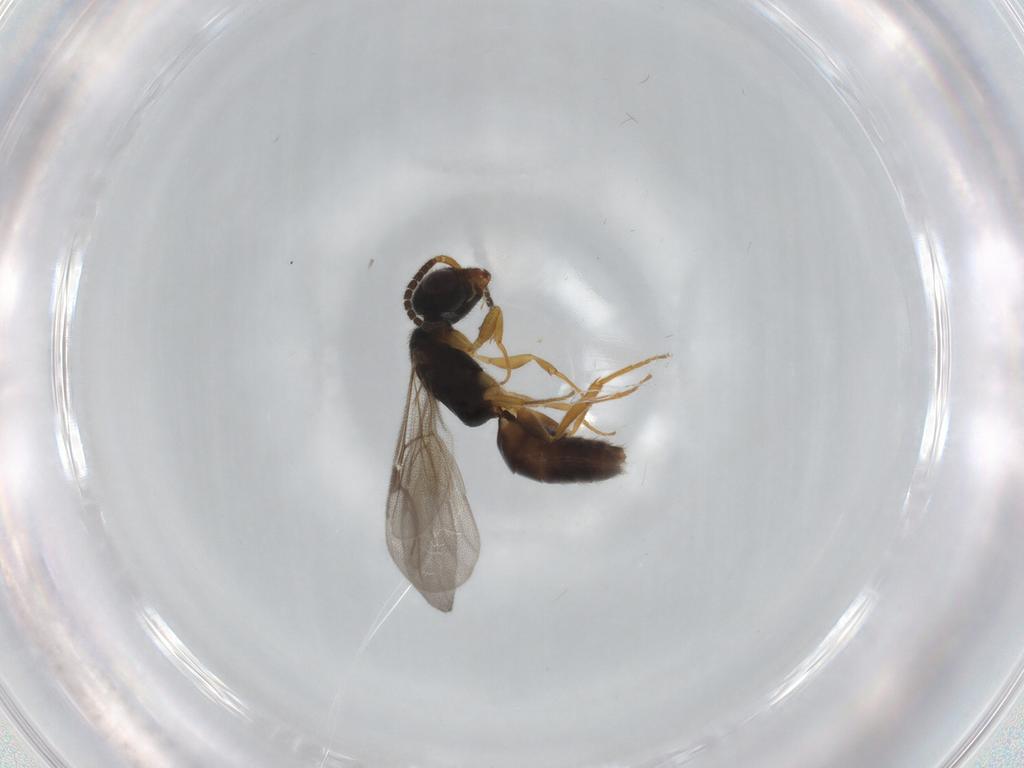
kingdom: Animalia
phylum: Arthropoda
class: Insecta
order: Hymenoptera
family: Bethylidae
